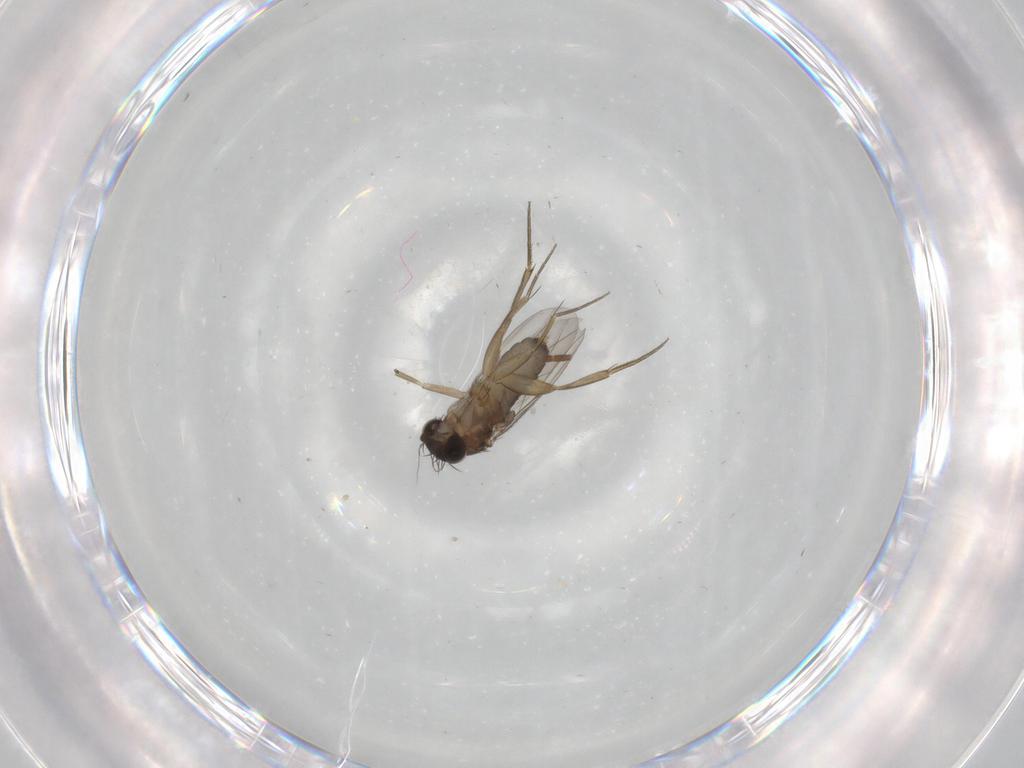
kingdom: Animalia
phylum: Arthropoda
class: Insecta
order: Diptera
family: Phoridae
